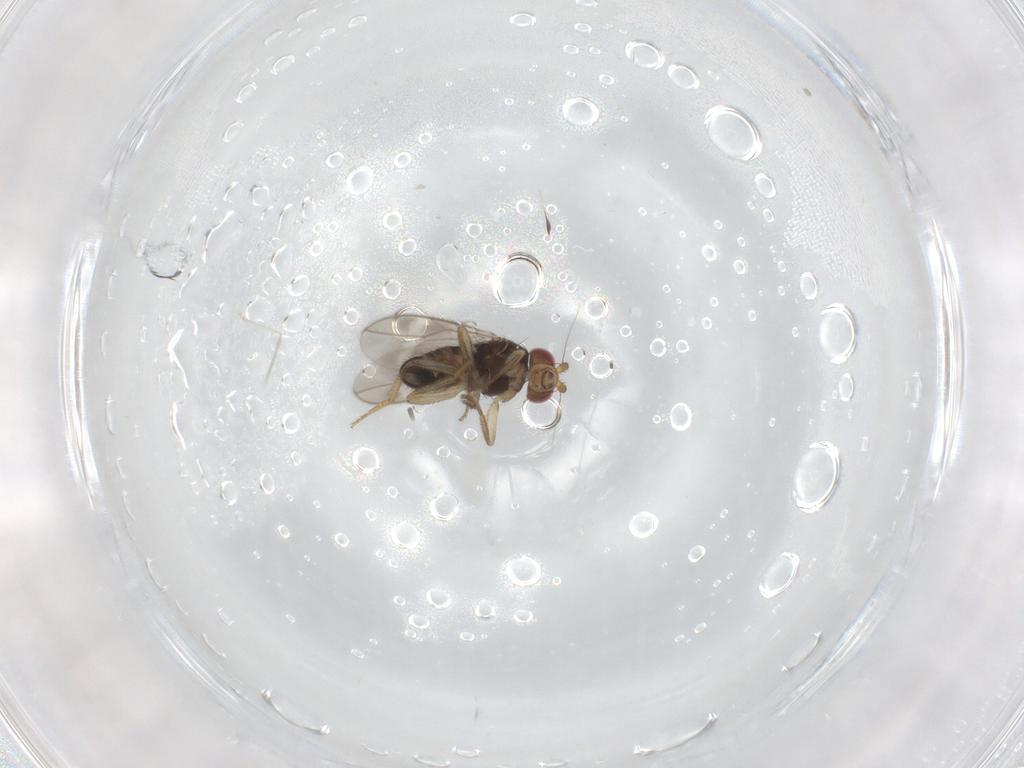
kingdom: Animalia
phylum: Arthropoda
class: Insecta
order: Diptera
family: Sphaeroceridae
